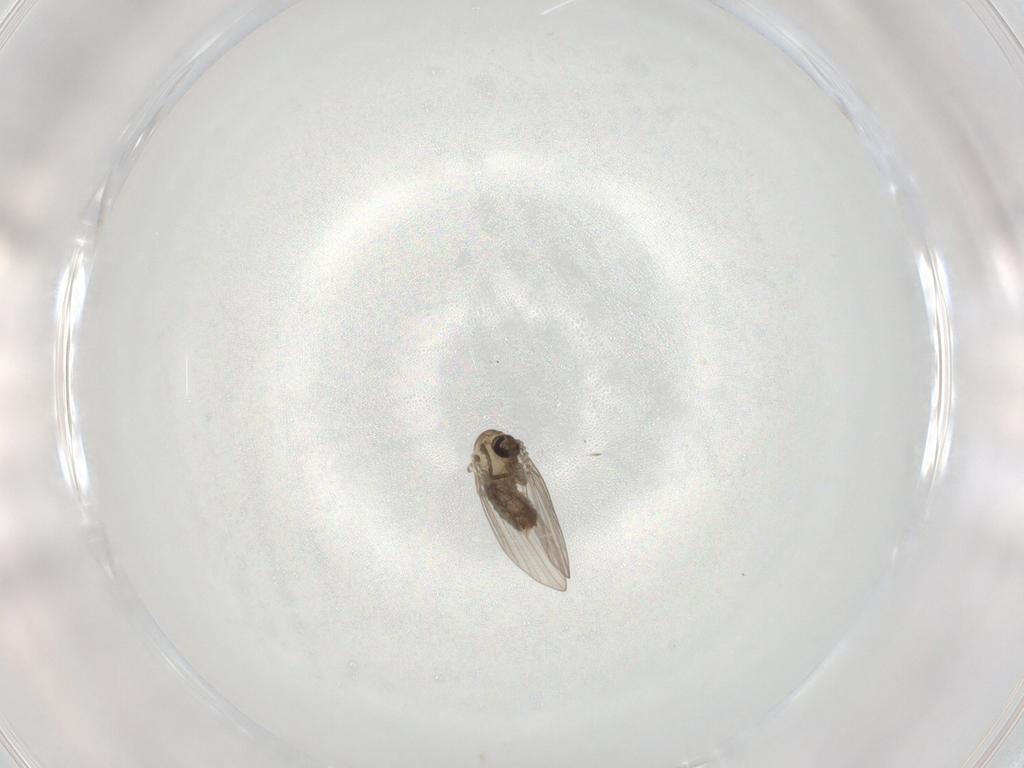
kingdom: Animalia
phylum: Arthropoda
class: Insecta
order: Diptera
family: Psychodidae
